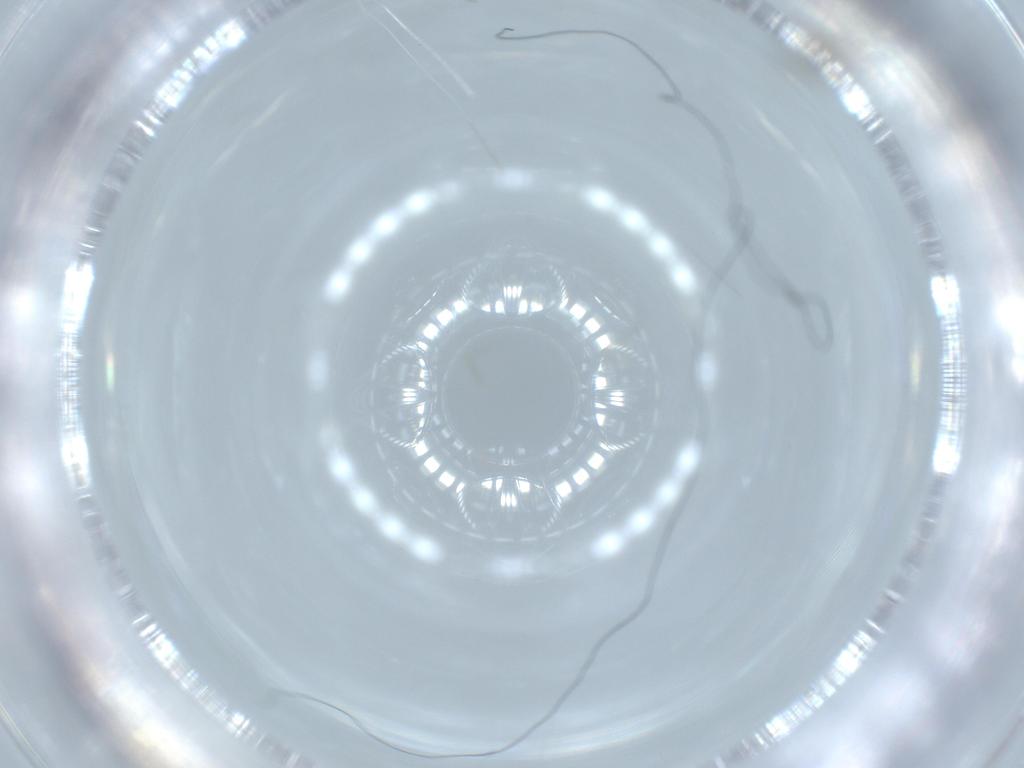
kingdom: Animalia
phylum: Arthropoda
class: Insecta
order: Diptera
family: Cecidomyiidae
